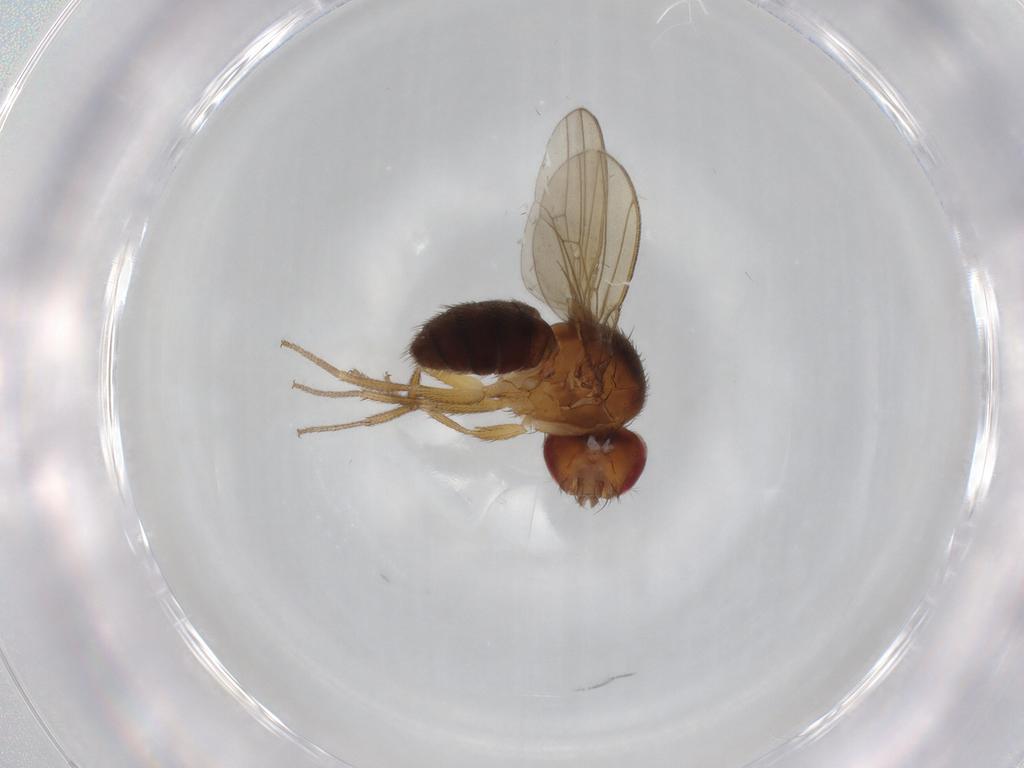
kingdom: Animalia
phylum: Arthropoda
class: Insecta
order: Diptera
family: Drosophilidae
